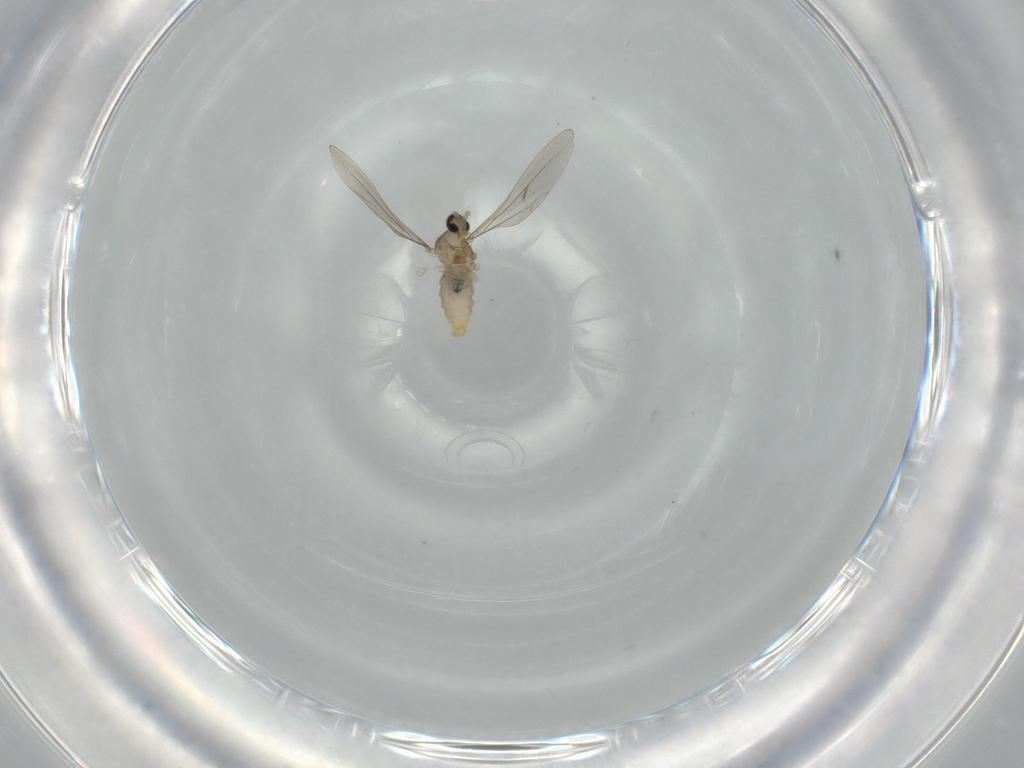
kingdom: Animalia
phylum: Arthropoda
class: Insecta
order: Diptera
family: Cecidomyiidae
